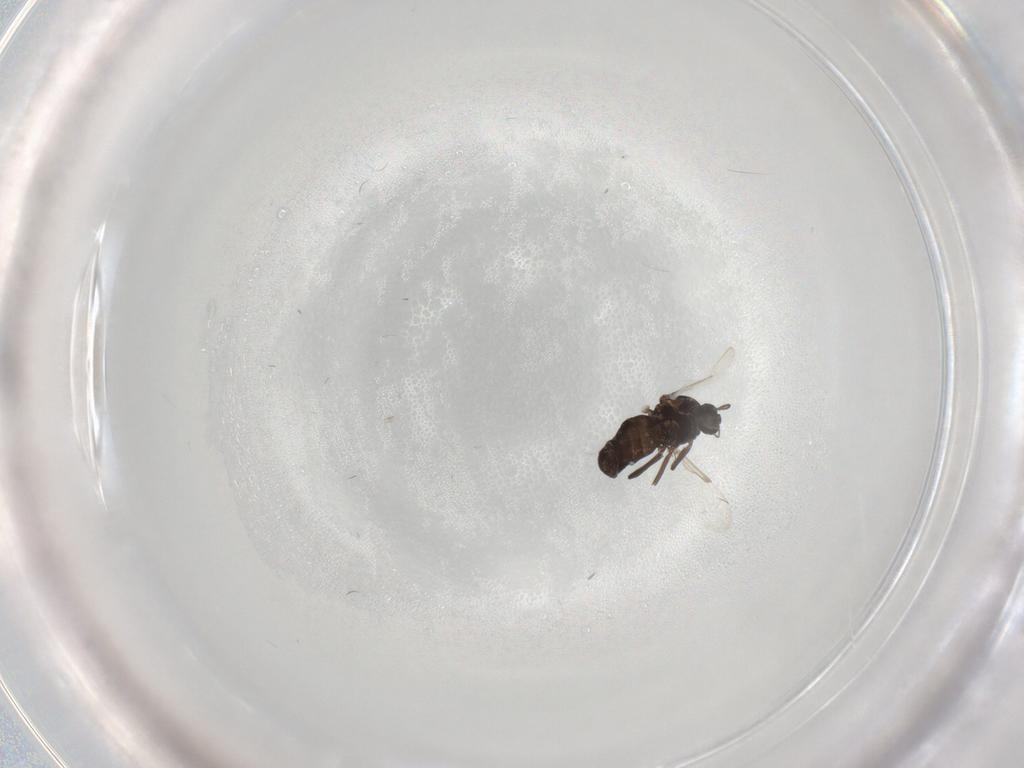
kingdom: Animalia
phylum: Arthropoda
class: Insecta
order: Diptera
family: Ceratopogonidae
